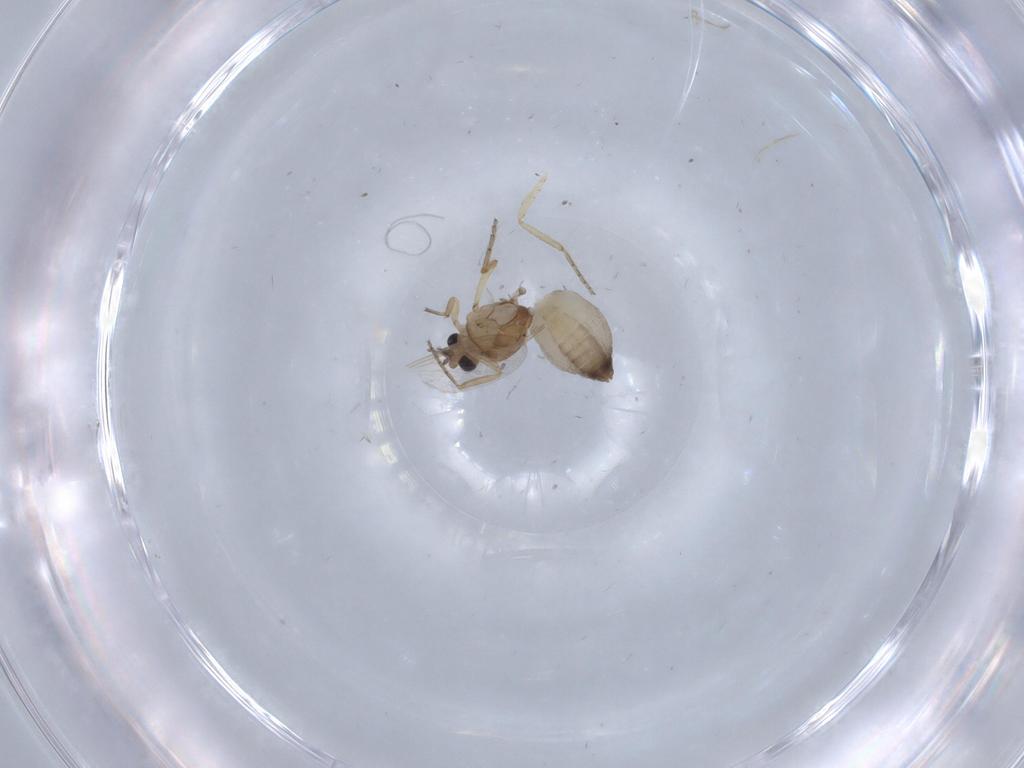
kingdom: Animalia
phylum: Arthropoda
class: Insecta
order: Diptera
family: Ceratopogonidae
